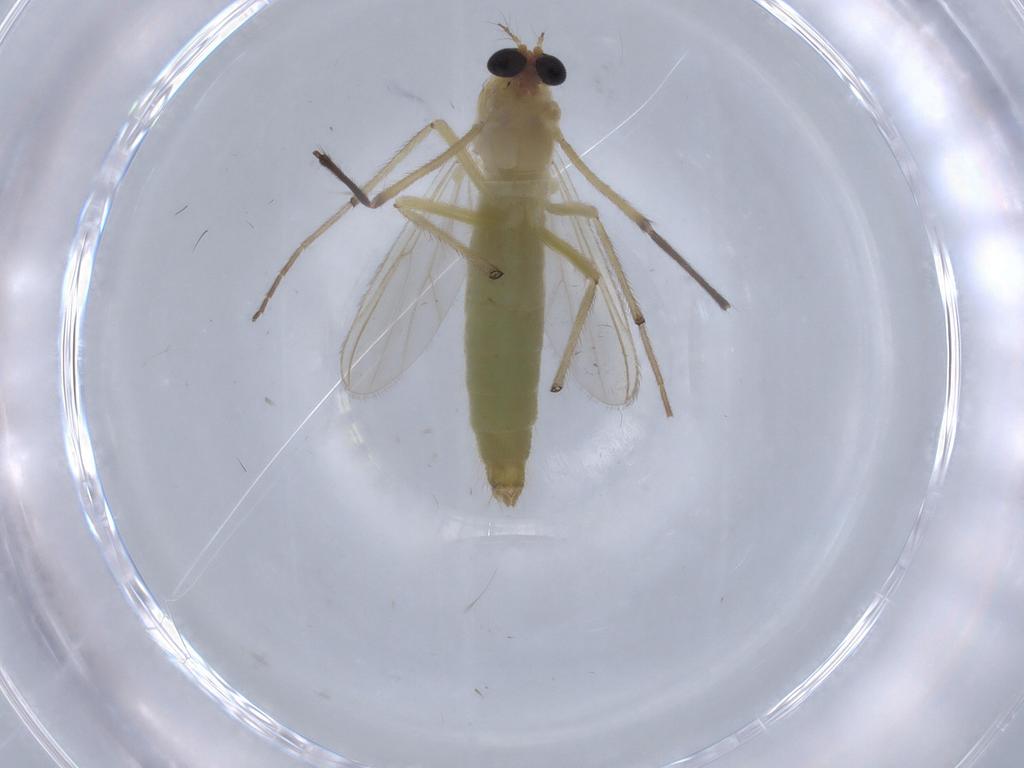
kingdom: Animalia
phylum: Arthropoda
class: Insecta
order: Diptera
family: Chironomidae
